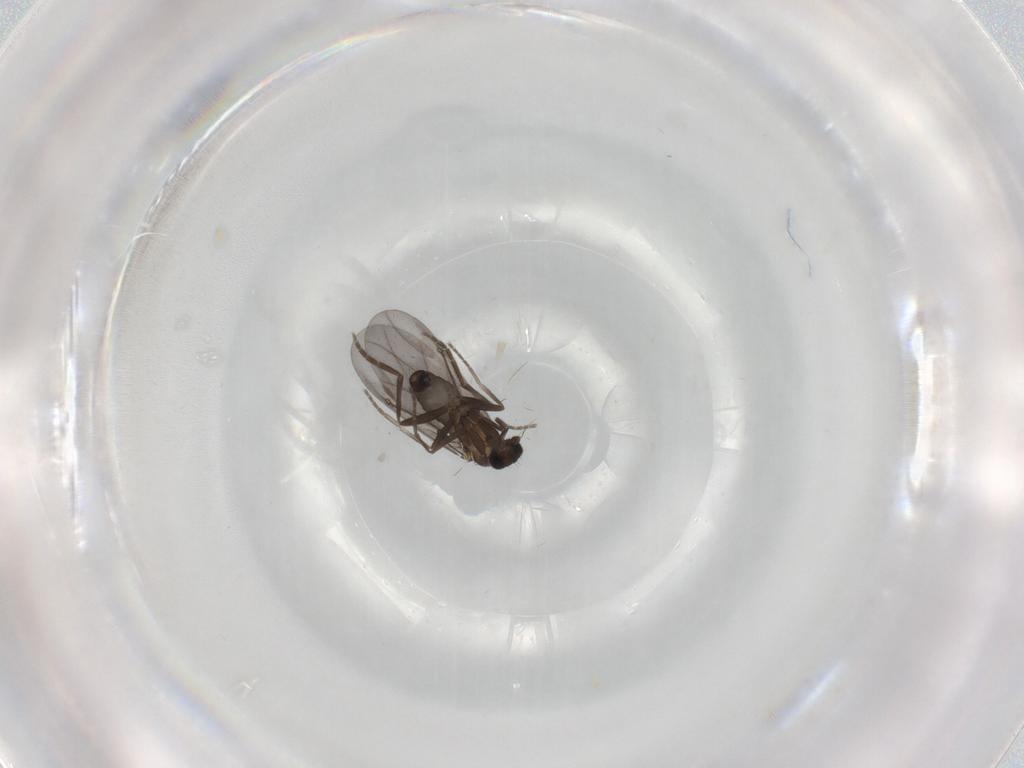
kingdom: Animalia
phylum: Arthropoda
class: Insecta
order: Diptera
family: Phoridae
